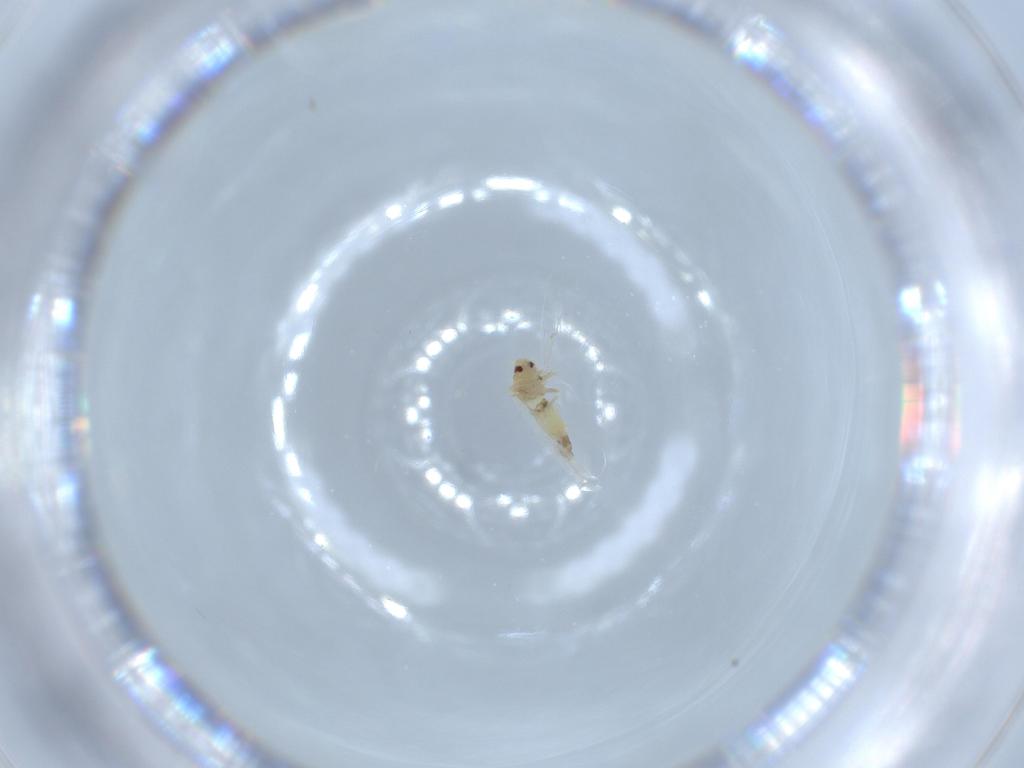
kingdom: Animalia
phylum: Arthropoda
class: Insecta
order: Hemiptera
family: Aleyrodidae
